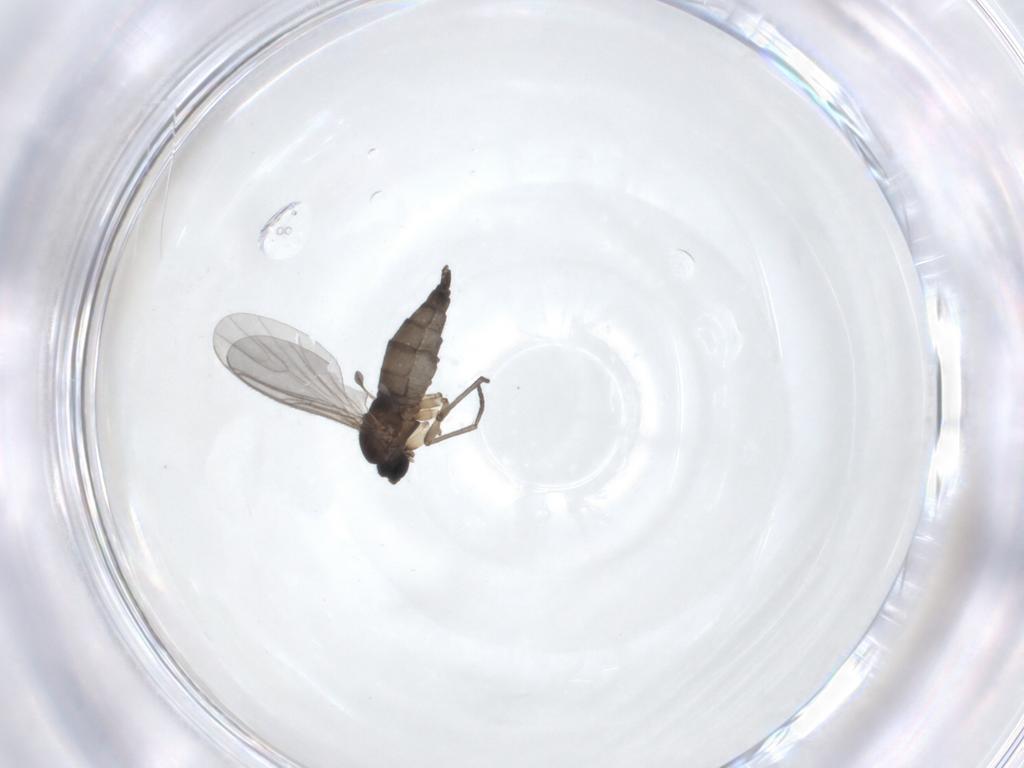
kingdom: Animalia
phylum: Arthropoda
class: Insecta
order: Diptera
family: Sciaridae
